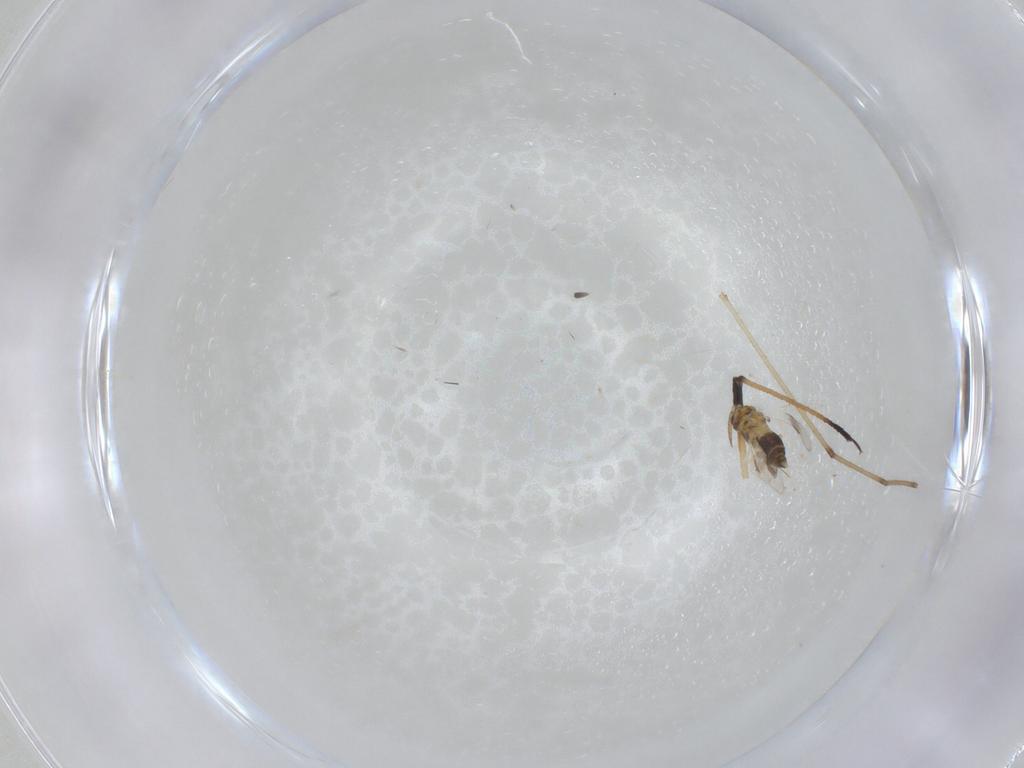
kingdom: Animalia
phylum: Arthropoda
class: Insecta
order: Hymenoptera
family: Aphelinidae
